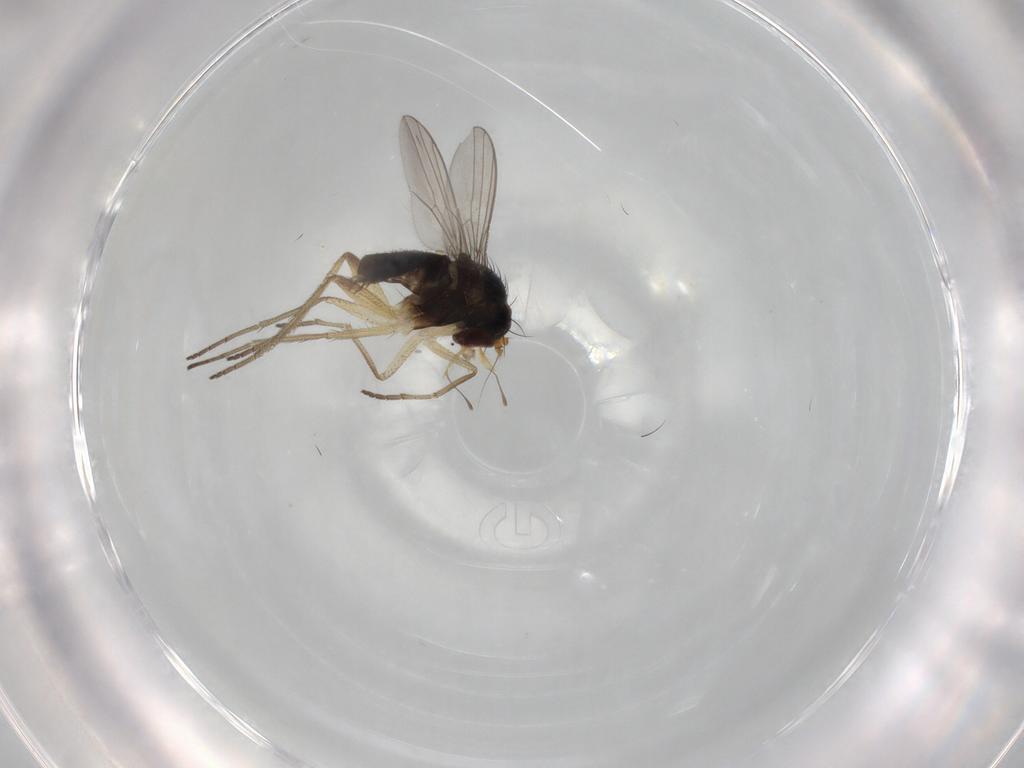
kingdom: Animalia
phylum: Arthropoda
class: Insecta
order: Diptera
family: Dolichopodidae
